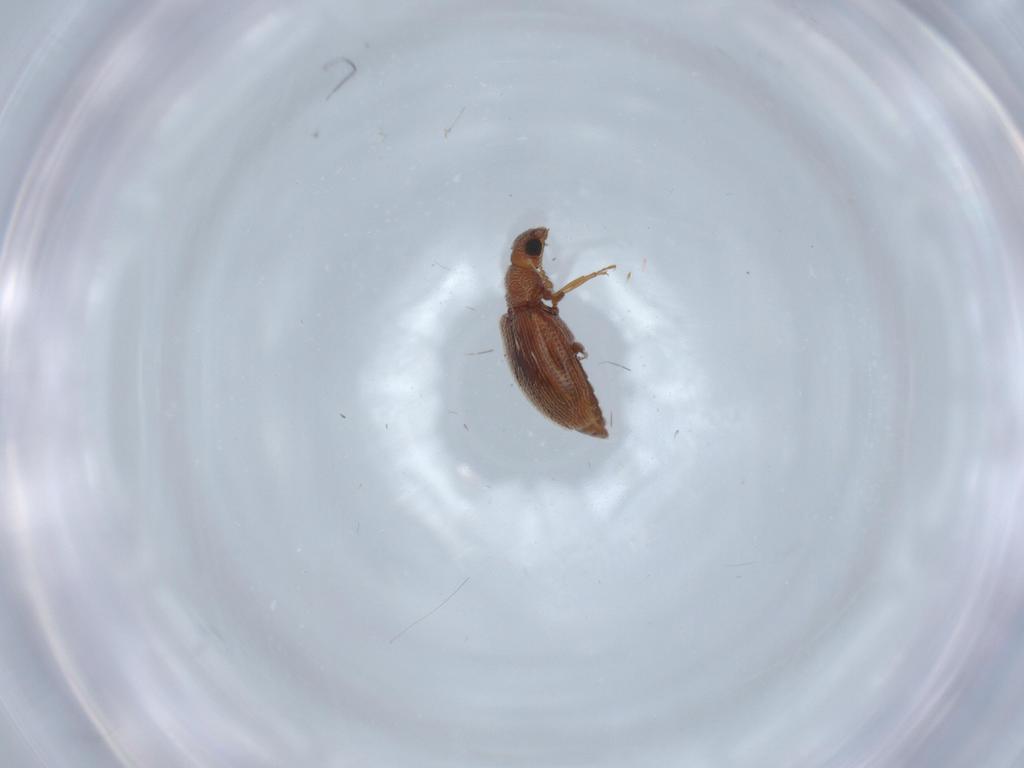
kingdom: Animalia
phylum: Arthropoda
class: Insecta
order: Coleoptera
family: Latridiidae
